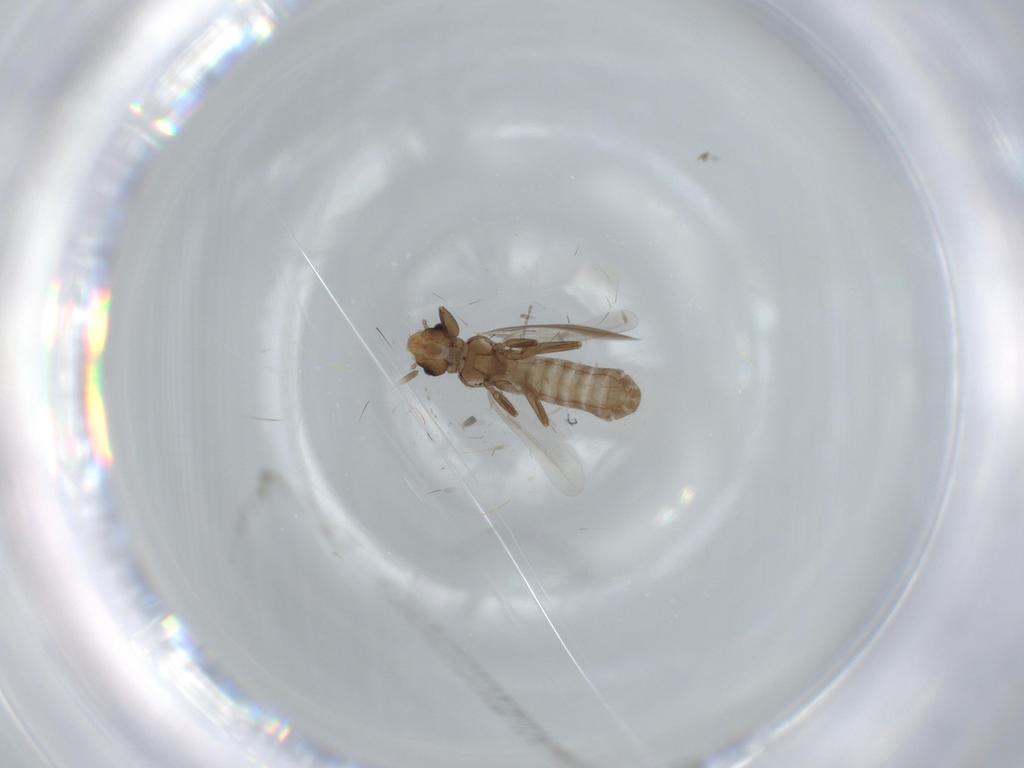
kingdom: Animalia
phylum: Arthropoda
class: Insecta
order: Psocodea
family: Liposcelididae
